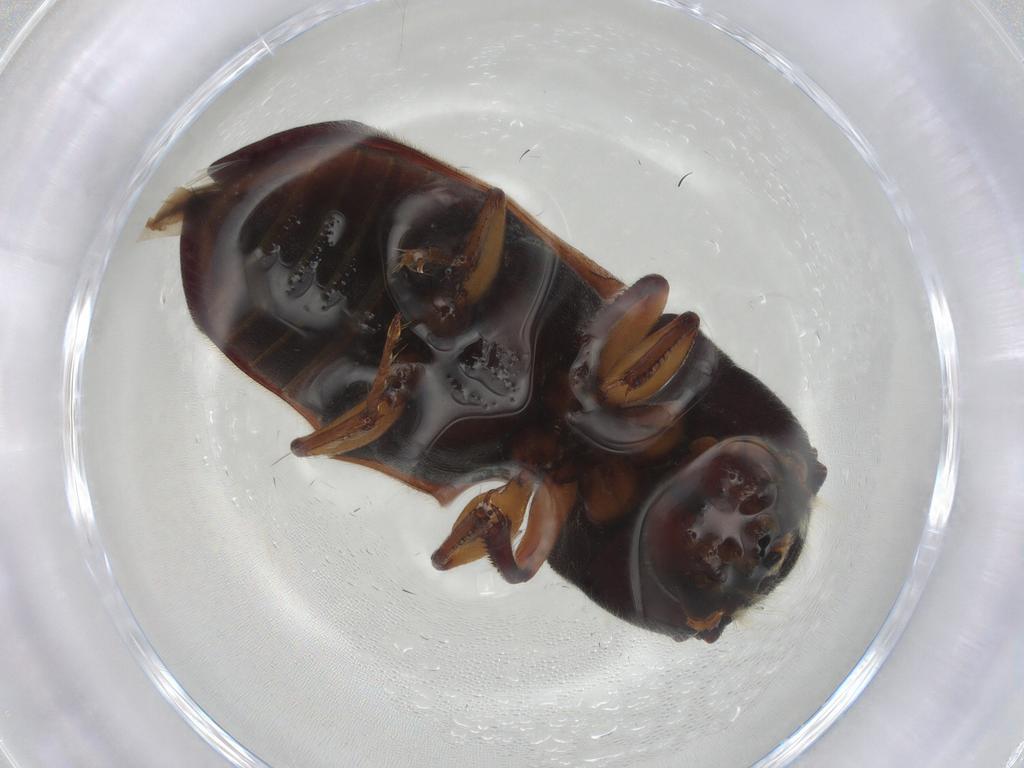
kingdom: Animalia
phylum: Arthropoda
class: Insecta
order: Coleoptera
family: Bostrichidae
